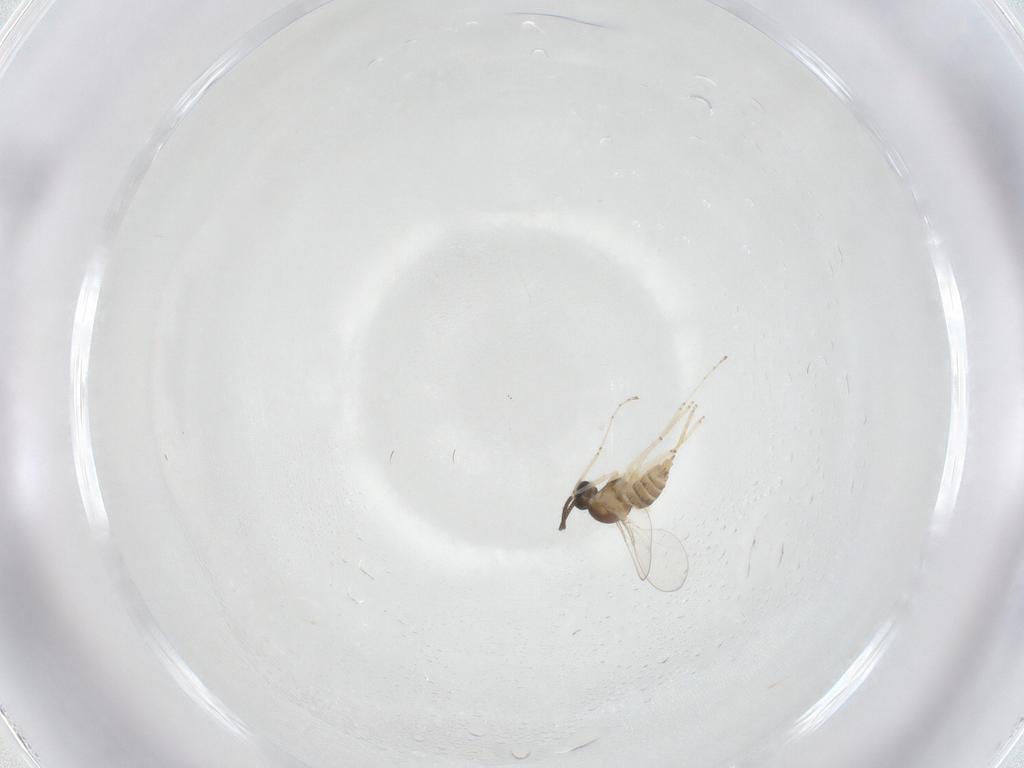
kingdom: Animalia
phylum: Arthropoda
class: Insecta
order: Diptera
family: Cecidomyiidae
